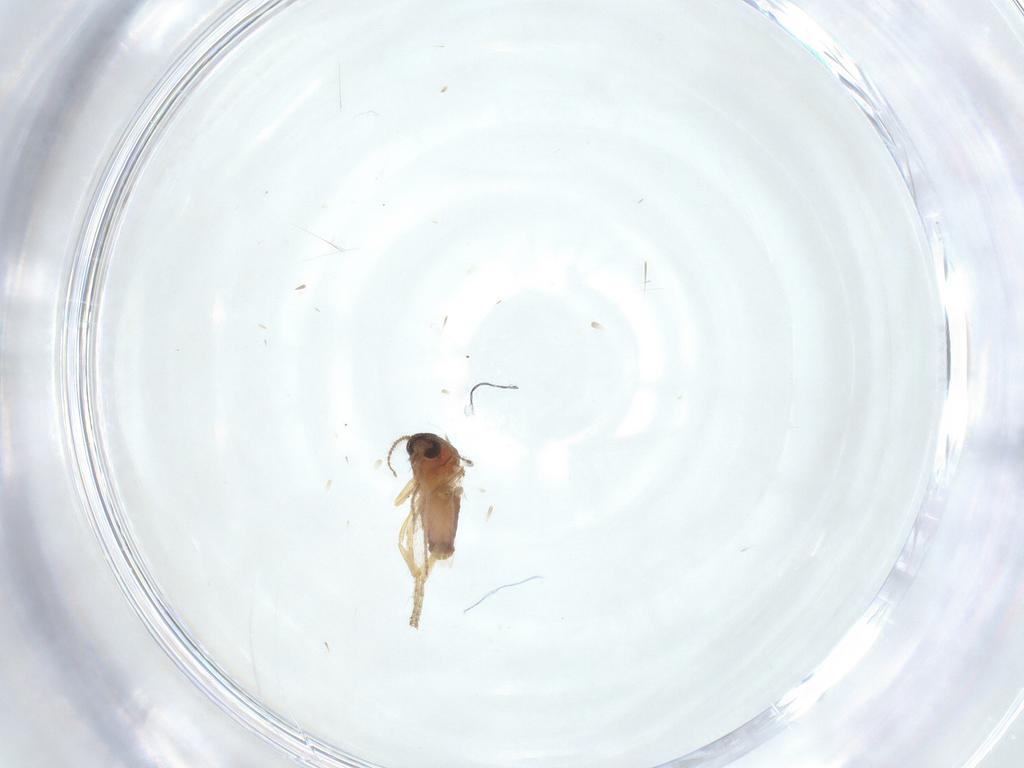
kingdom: Animalia
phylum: Arthropoda
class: Insecta
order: Diptera
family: Ceratopogonidae
